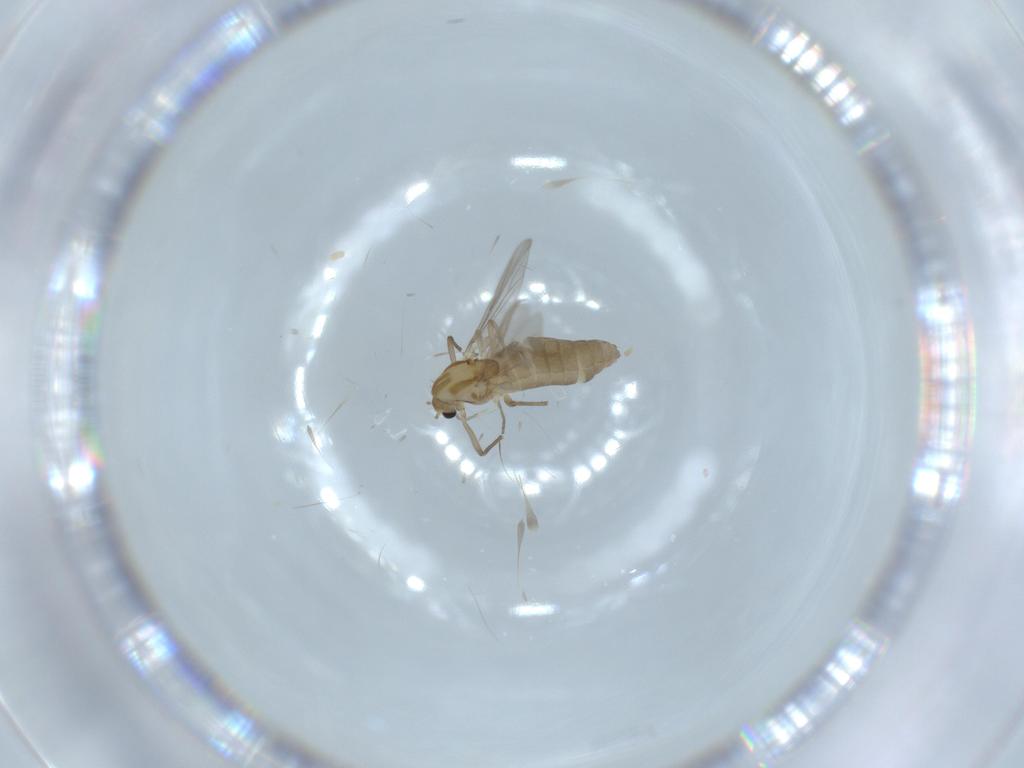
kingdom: Animalia
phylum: Arthropoda
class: Insecta
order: Diptera
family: Chironomidae
